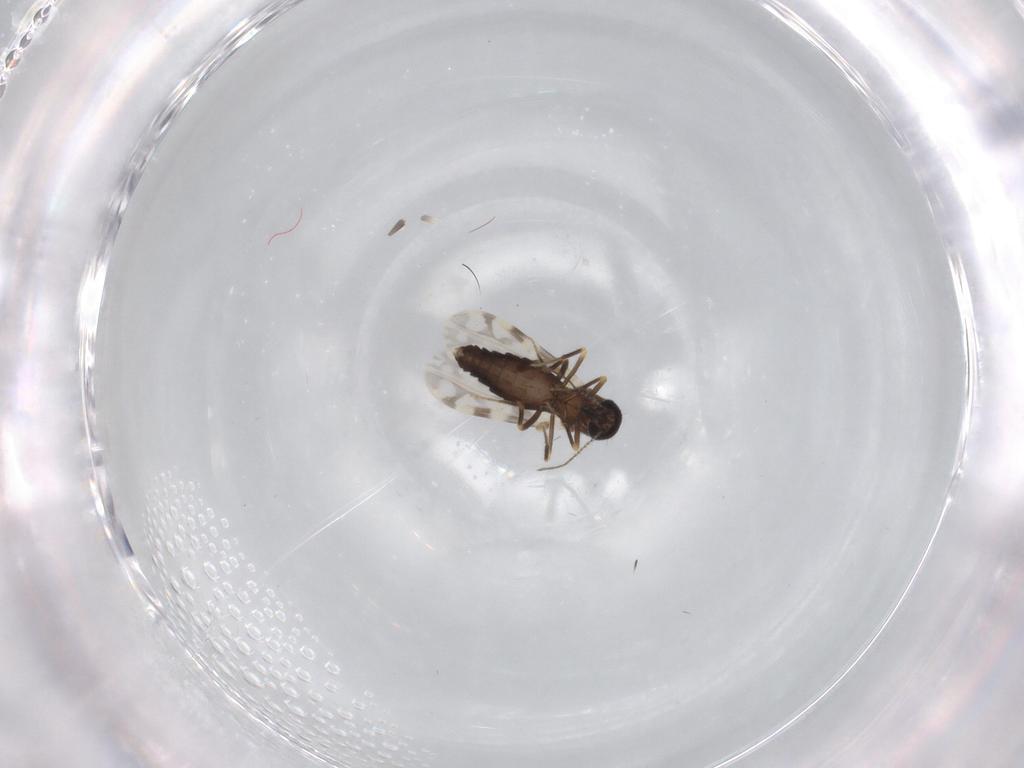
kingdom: Animalia
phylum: Arthropoda
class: Insecta
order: Diptera
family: Ceratopogonidae
